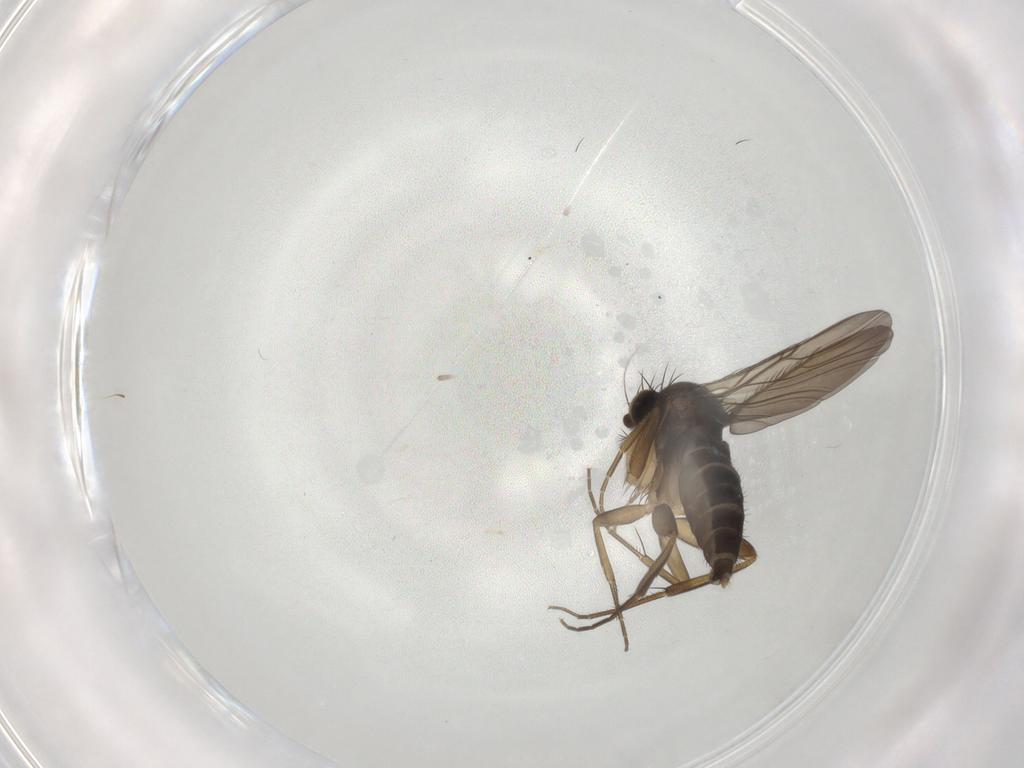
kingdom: Animalia
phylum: Arthropoda
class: Insecta
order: Diptera
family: Phoridae
